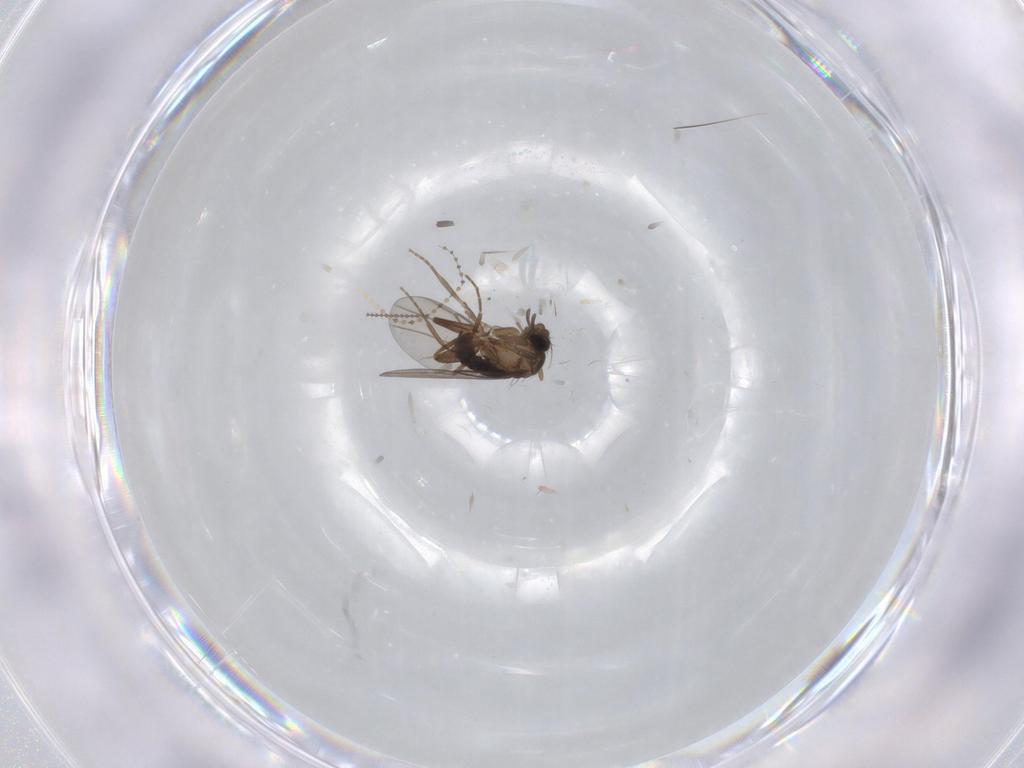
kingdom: Animalia
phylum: Arthropoda
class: Insecta
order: Diptera
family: Cecidomyiidae
